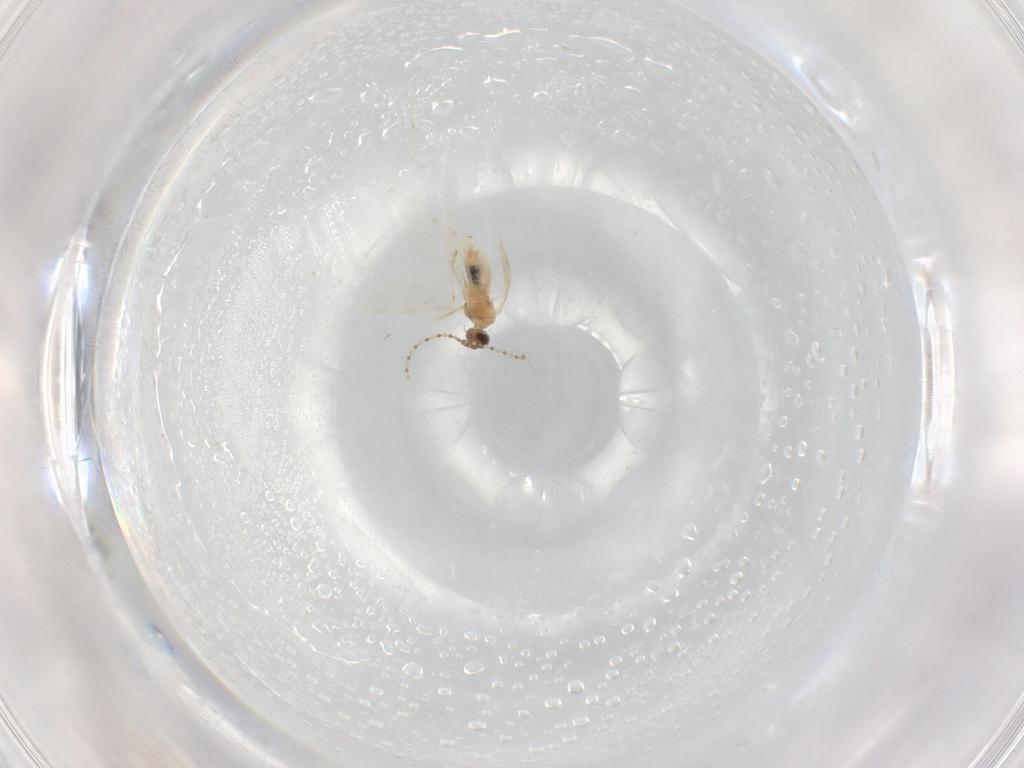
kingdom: Animalia
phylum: Arthropoda
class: Insecta
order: Diptera
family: Cecidomyiidae
